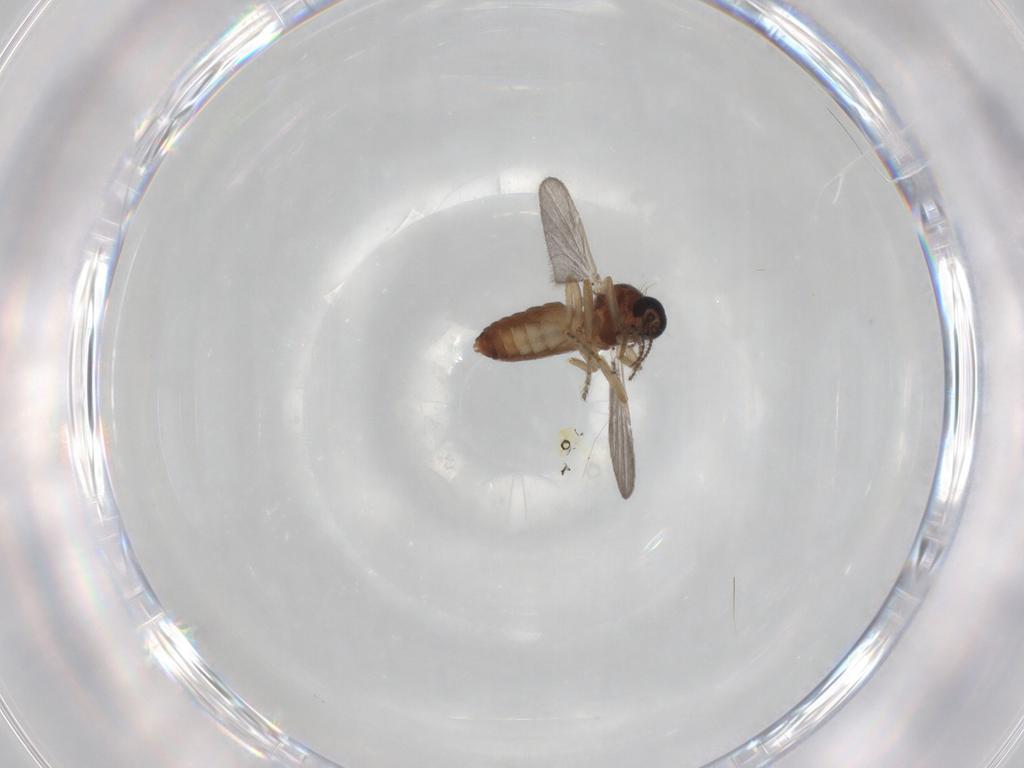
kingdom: Animalia
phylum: Arthropoda
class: Insecta
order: Diptera
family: Ceratopogonidae
